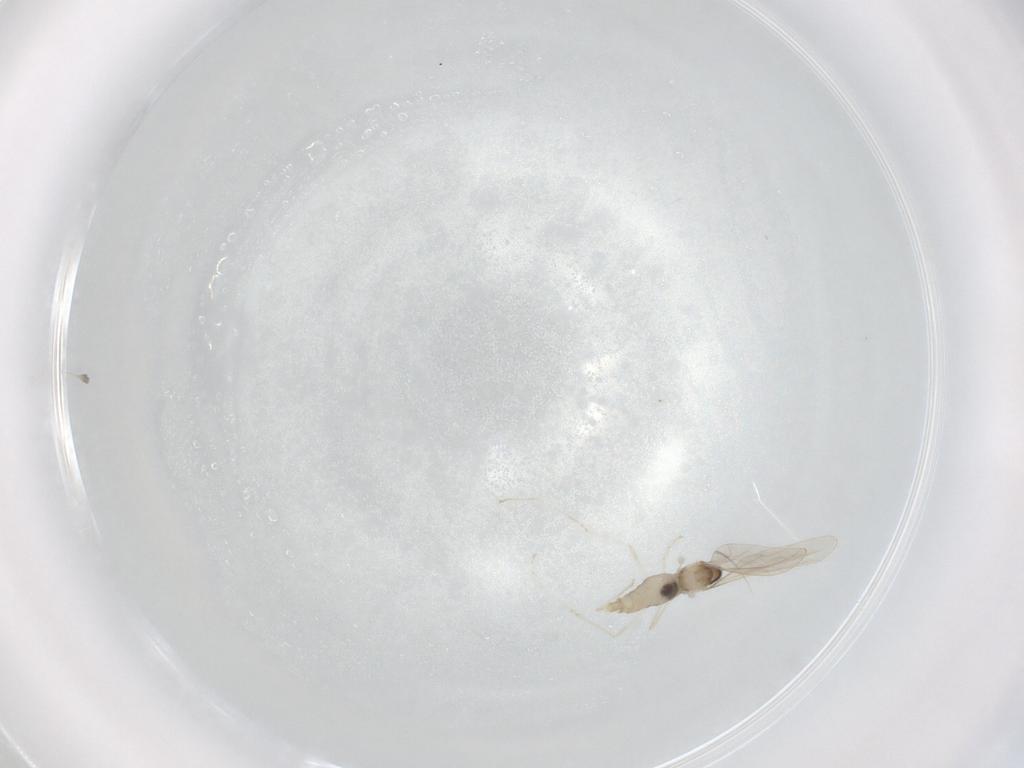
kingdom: Animalia
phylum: Arthropoda
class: Insecta
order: Diptera
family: Cecidomyiidae
